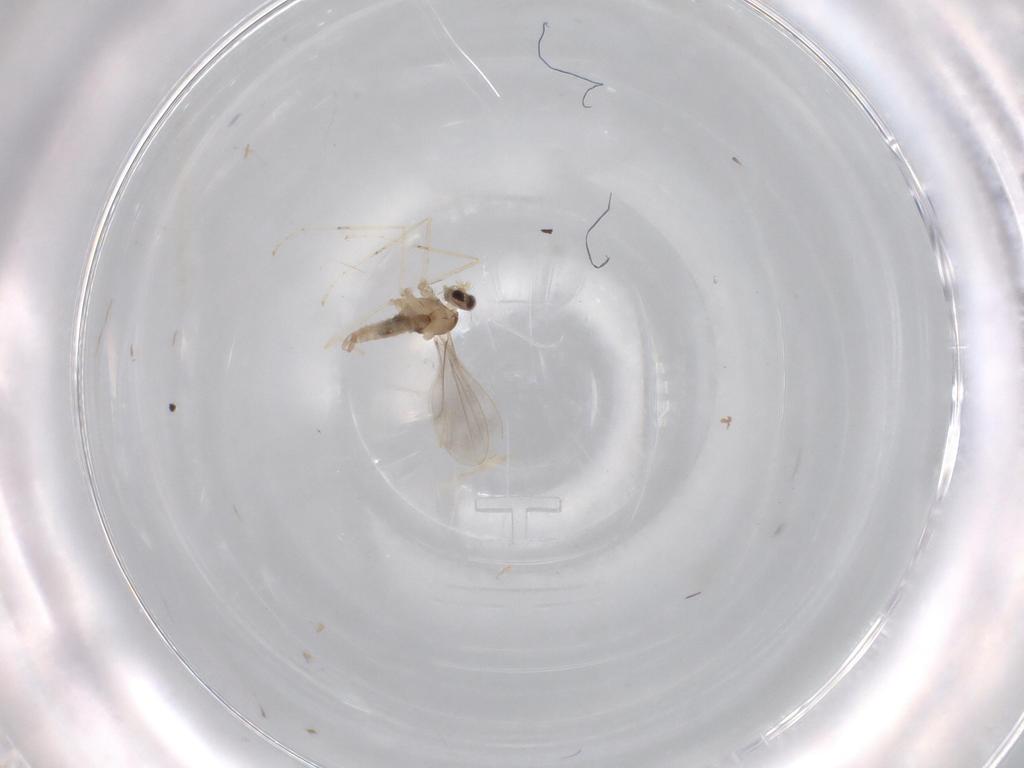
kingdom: Animalia
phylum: Arthropoda
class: Insecta
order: Diptera
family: Cecidomyiidae
